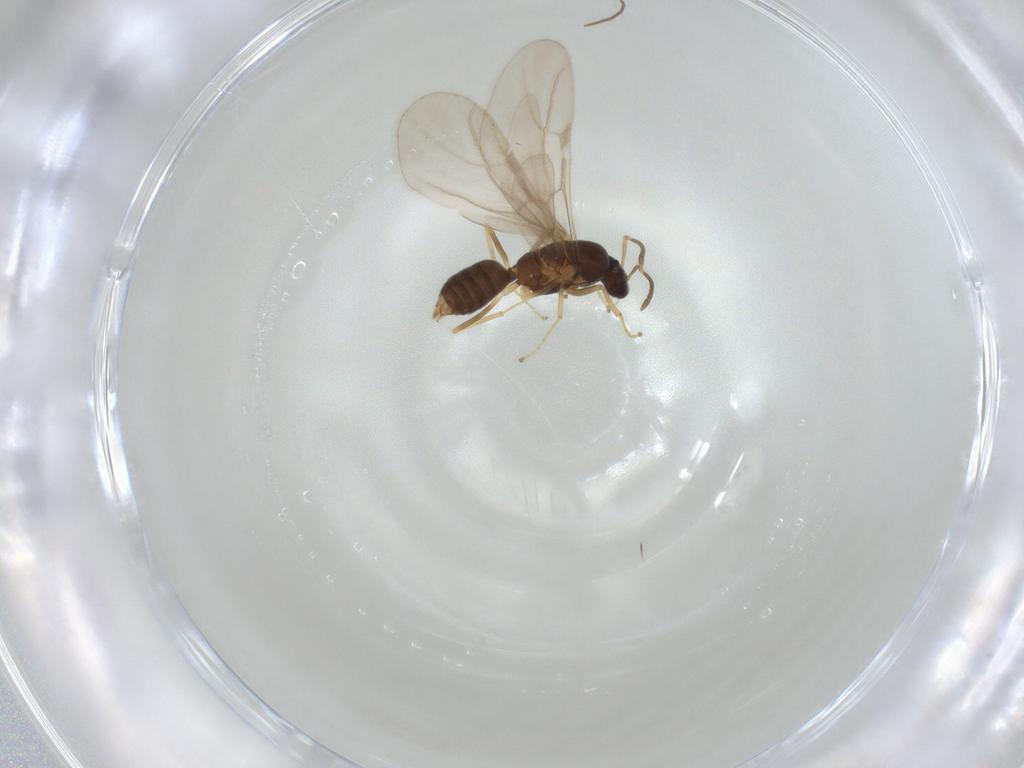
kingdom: Animalia
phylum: Arthropoda
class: Insecta
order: Hymenoptera
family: Formicidae
